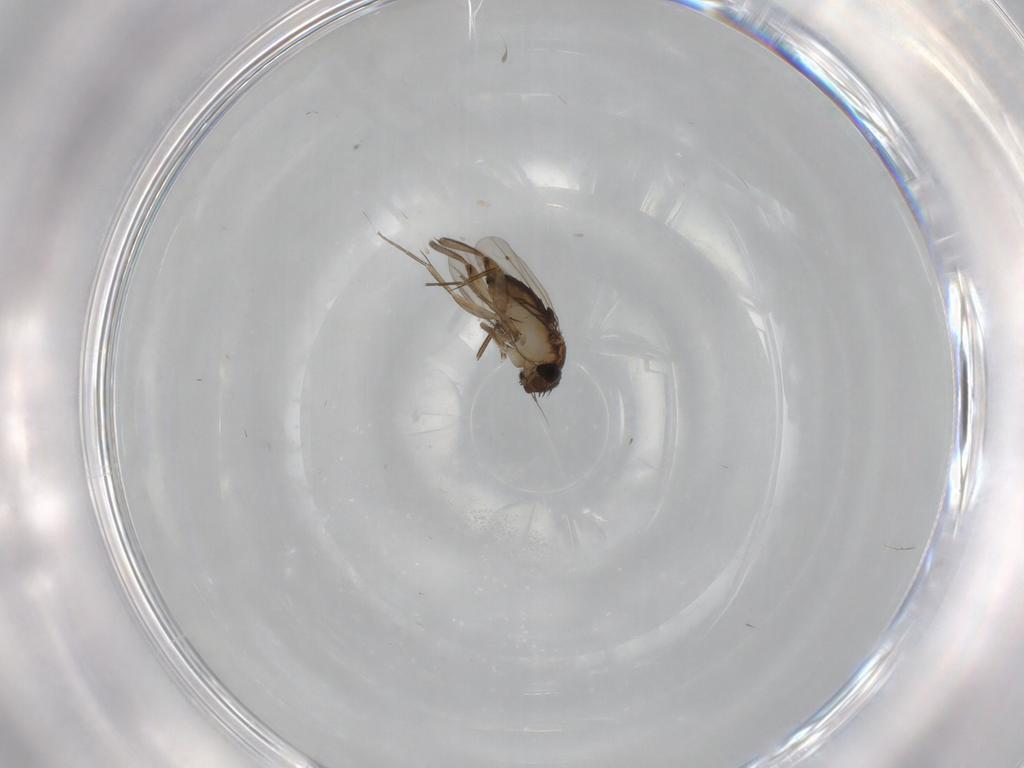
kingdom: Animalia
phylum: Arthropoda
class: Insecta
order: Diptera
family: Phoridae
